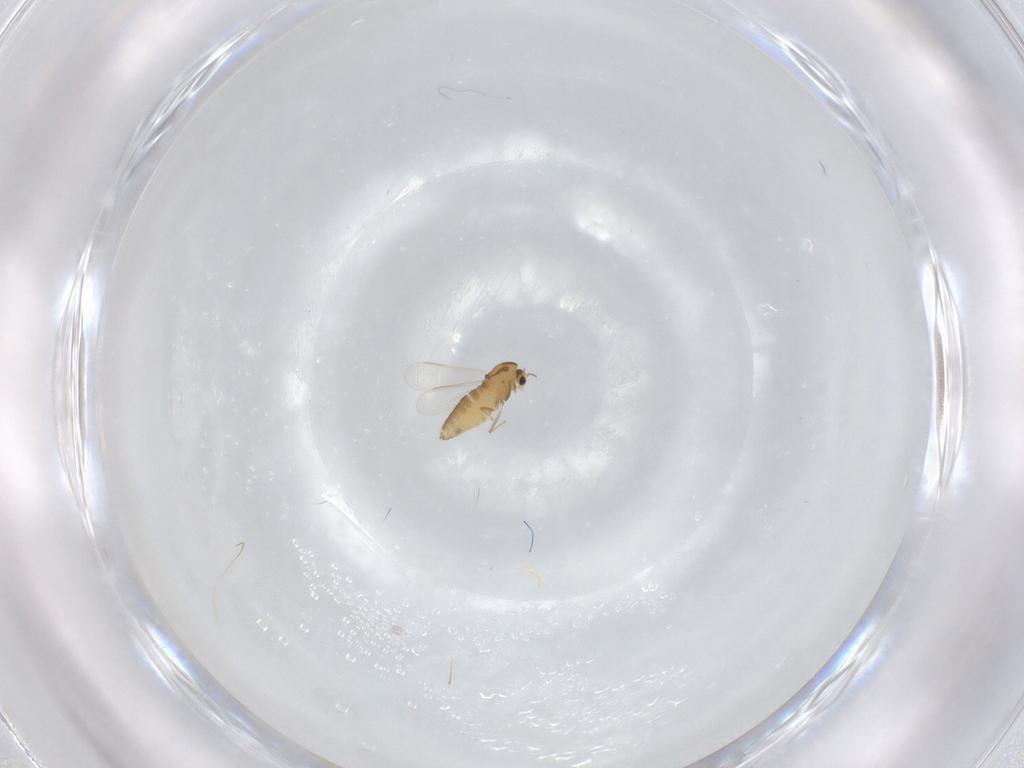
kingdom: Animalia
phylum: Arthropoda
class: Insecta
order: Diptera
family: Chironomidae
